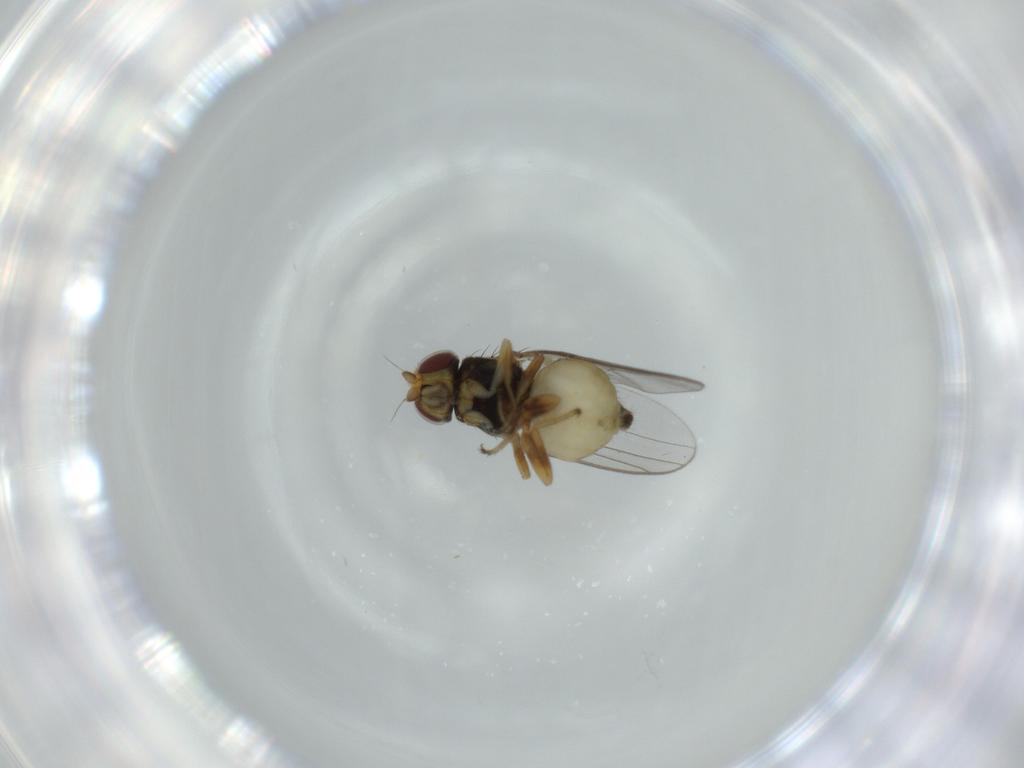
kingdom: Animalia
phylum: Arthropoda
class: Insecta
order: Diptera
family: Chloropidae
